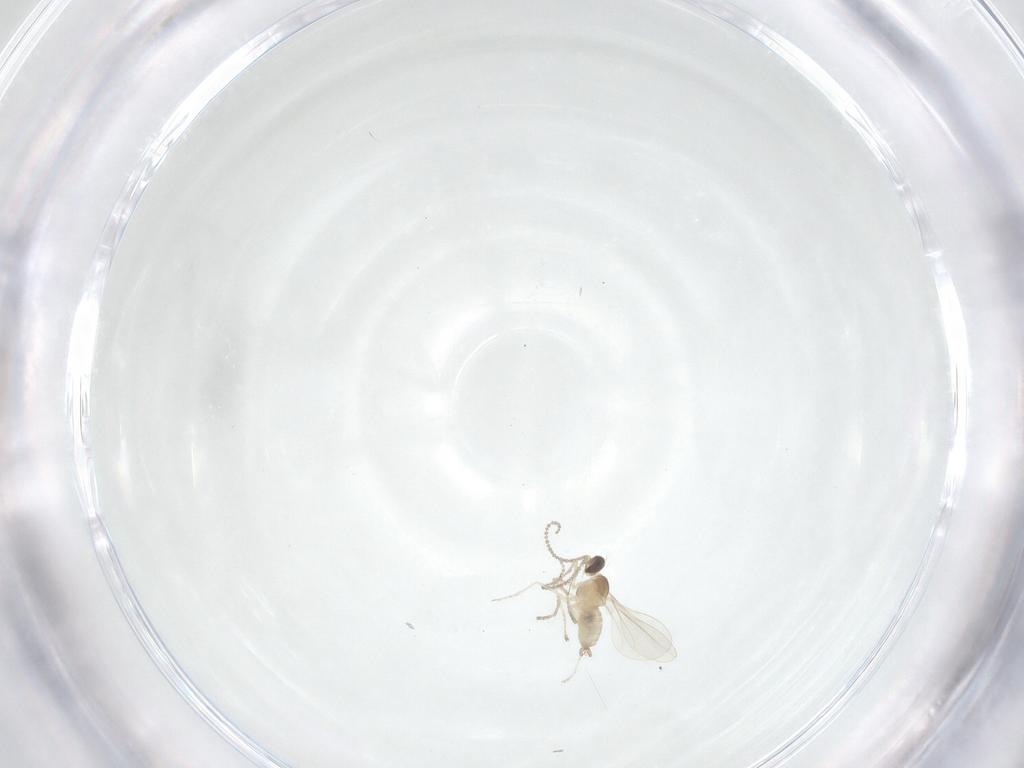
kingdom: Animalia
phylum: Arthropoda
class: Insecta
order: Diptera
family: Cecidomyiidae
